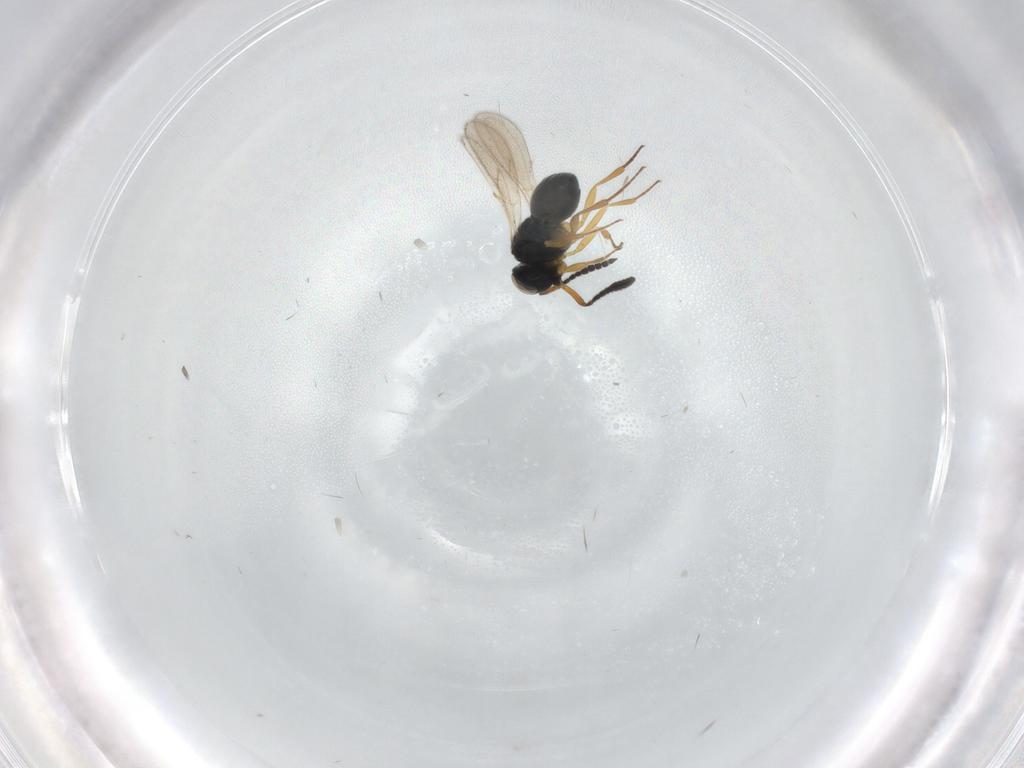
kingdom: Animalia
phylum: Arthropoda
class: Insecta
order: Hymenoptera
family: Scelionidae
